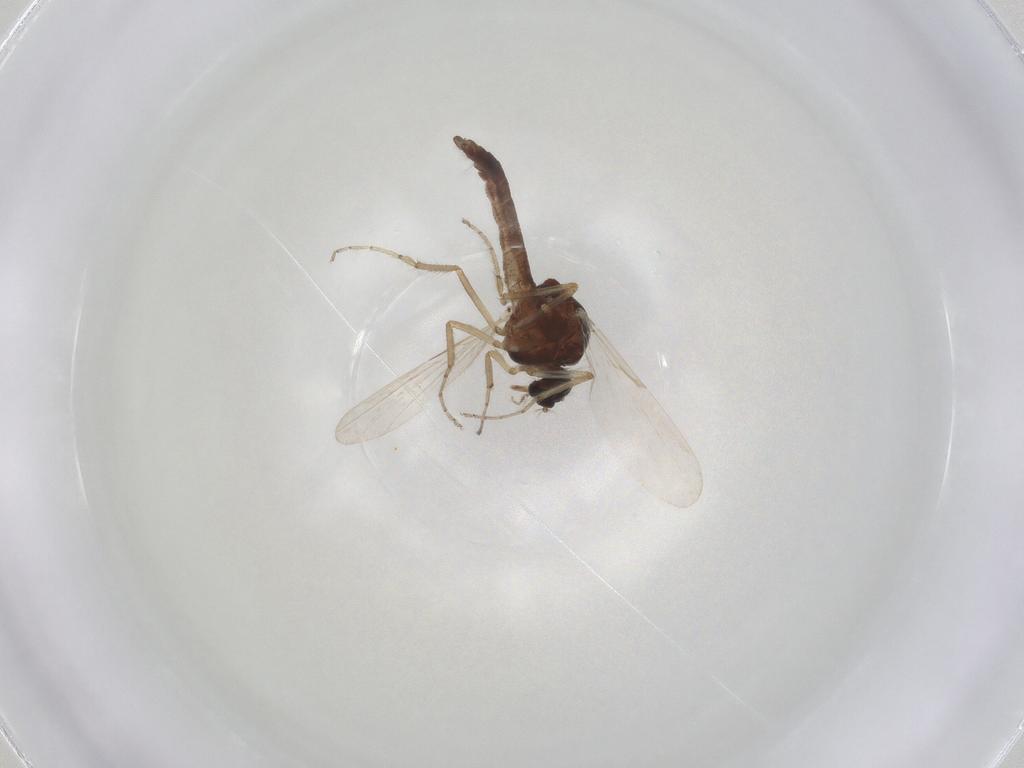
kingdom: Animalia
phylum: Arthropoda
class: Insecta
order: Diptera
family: Ceratopogonidae
